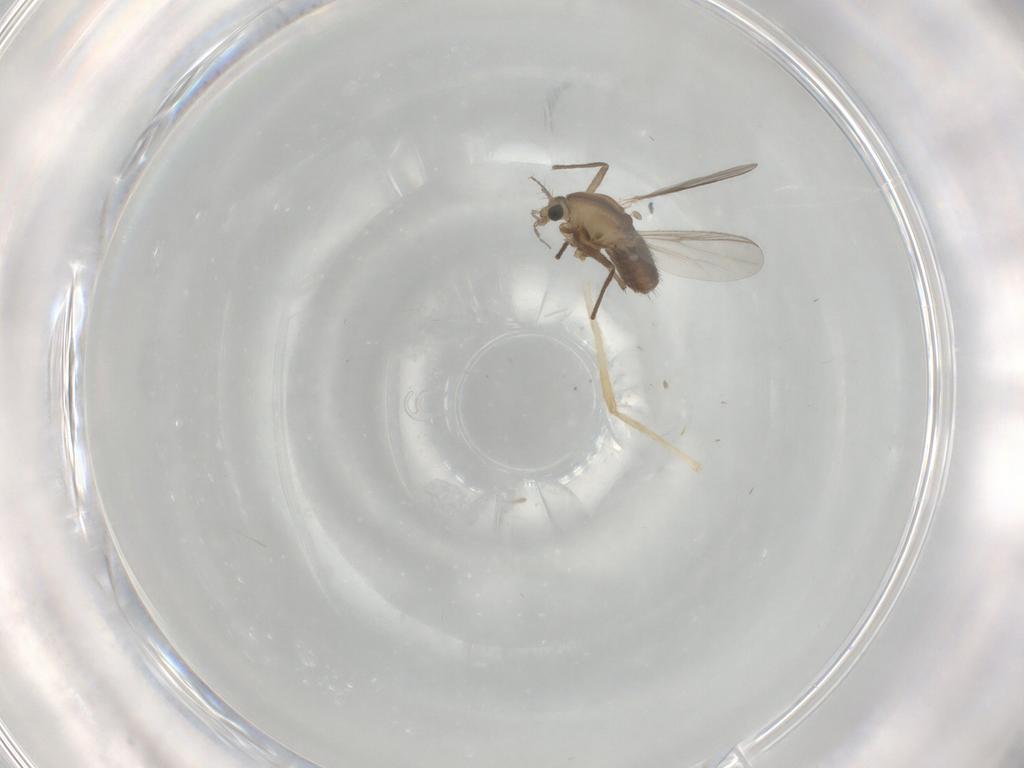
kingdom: Animalia
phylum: Arthropoda
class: Insecta
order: Diptera
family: Chironomidae
